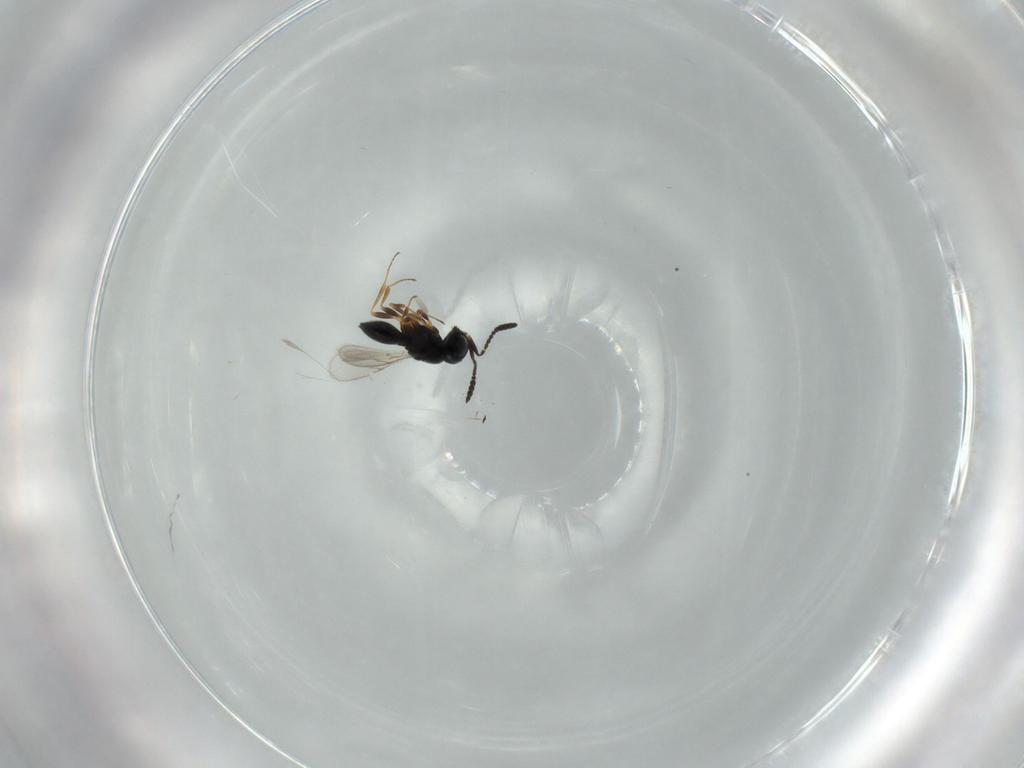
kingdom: Animalia
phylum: Arthropoda
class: Insecta
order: Hymenoptera
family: Scelionidae
